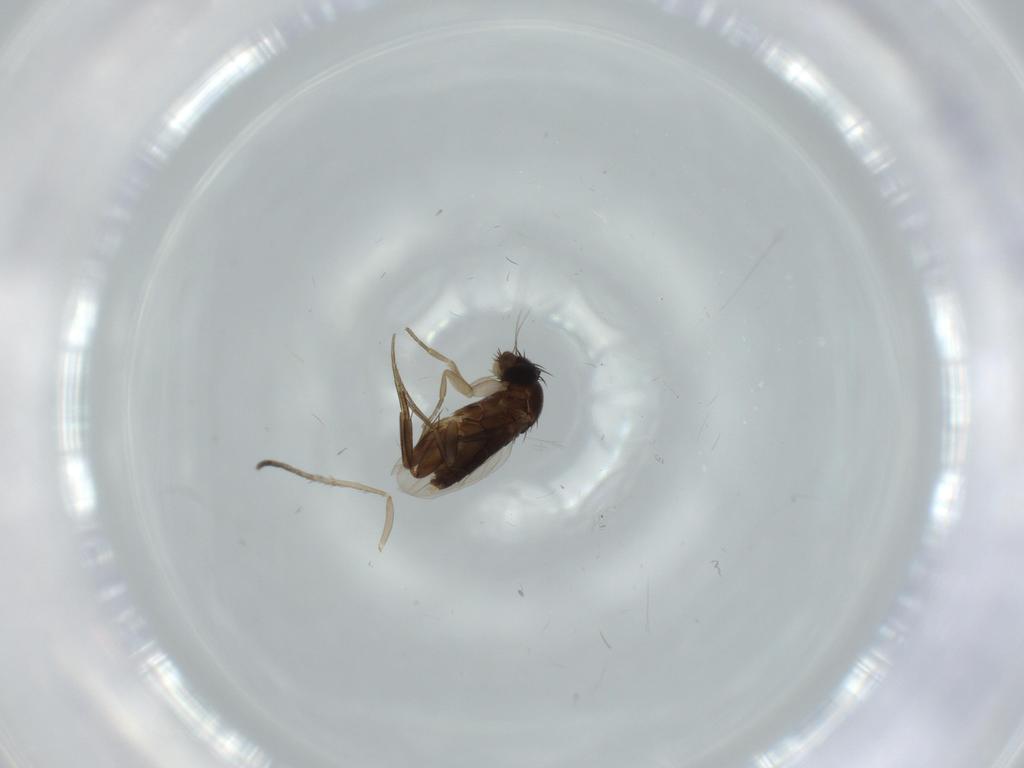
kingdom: Animalia
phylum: Arthropoda
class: Insecta
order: Diptera
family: Phoridae
